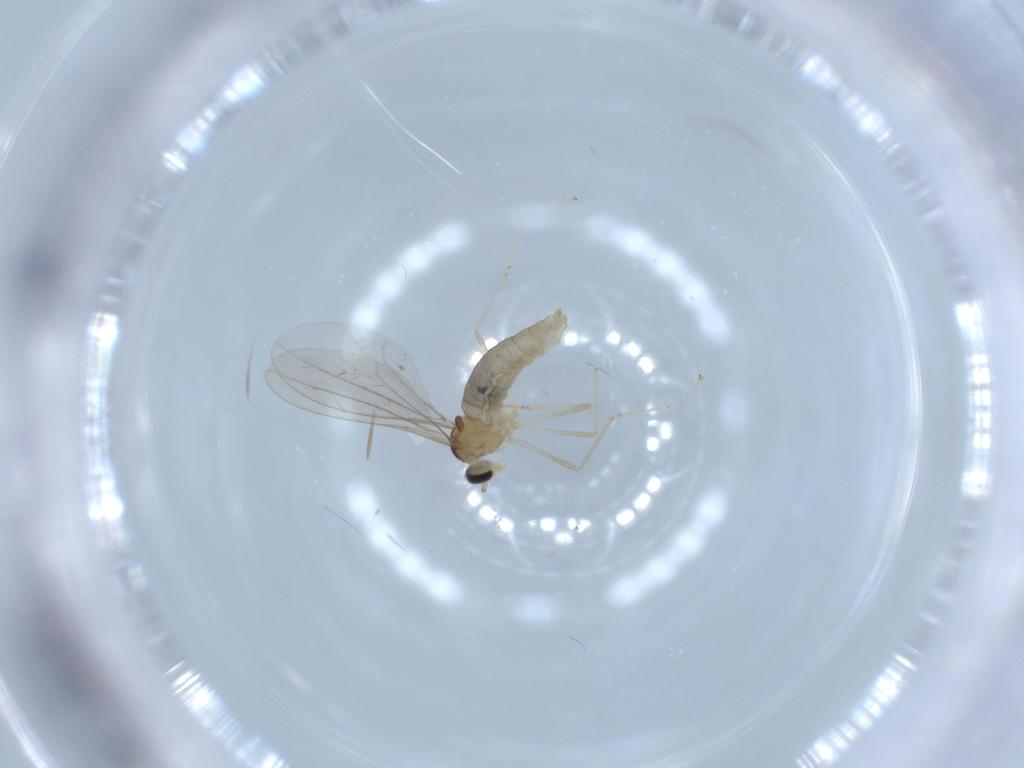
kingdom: Animalia
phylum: Arthropoda
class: Insecta
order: Diptera
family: Cecidomyiidae
